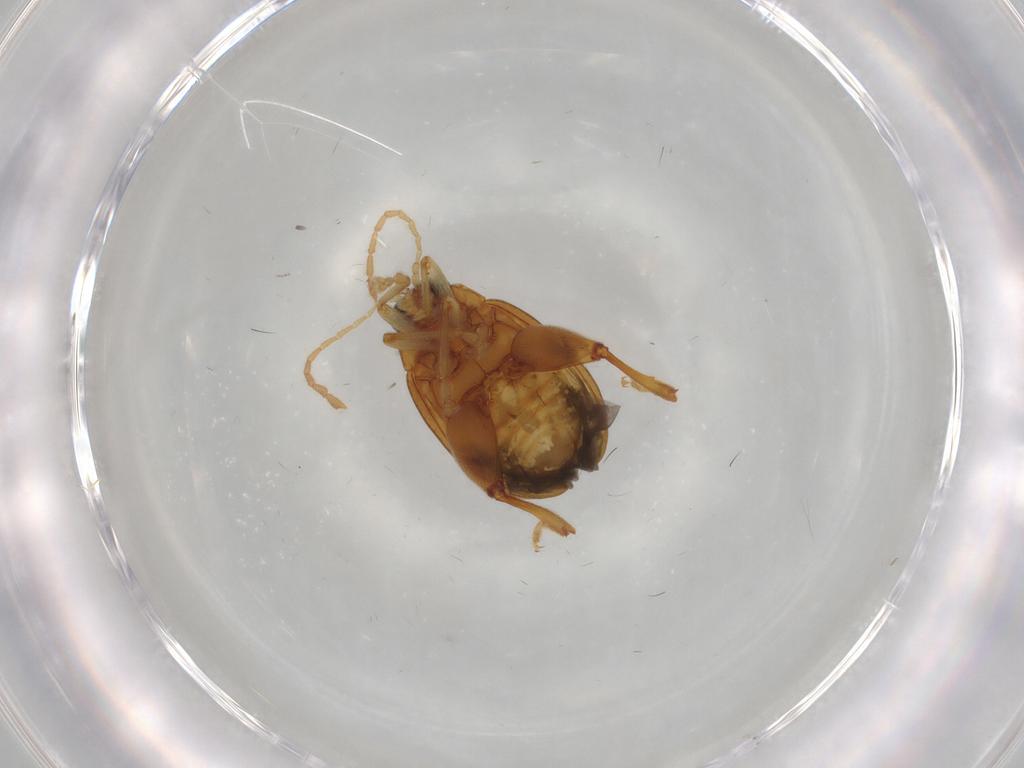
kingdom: Animalia
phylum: Arthropoda
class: Insecta
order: Coleoptera
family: Chrysomelidae
